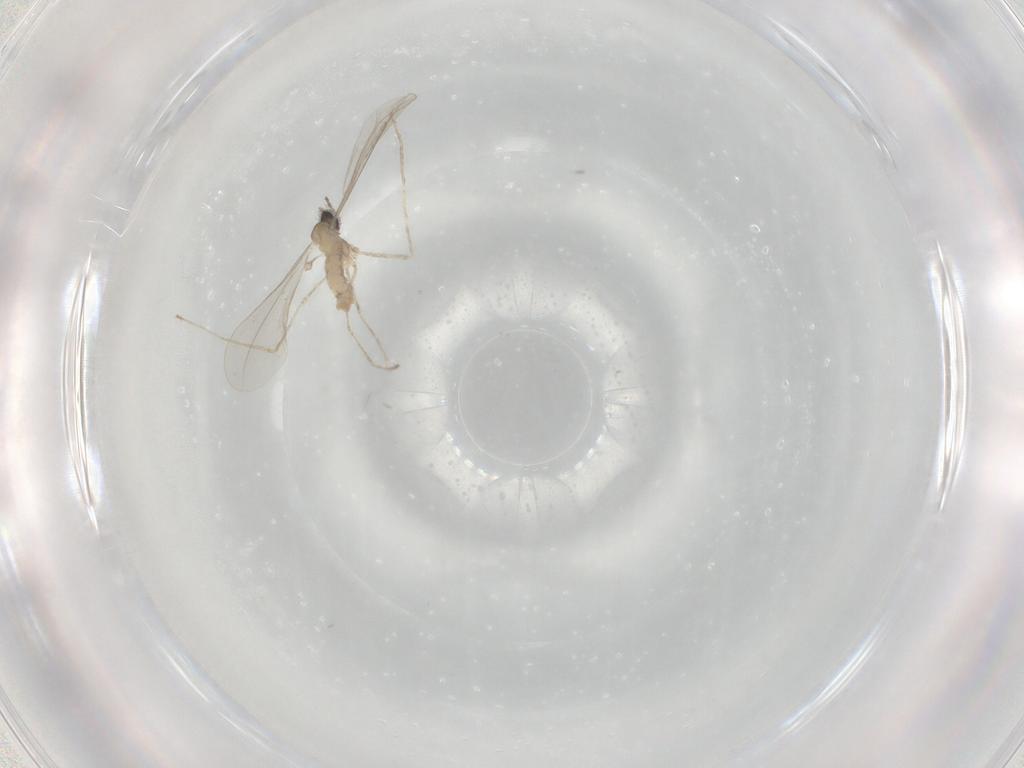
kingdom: Animalia
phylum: Arthropoda
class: Insecta
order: Diptera
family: Cecidomyiidae
